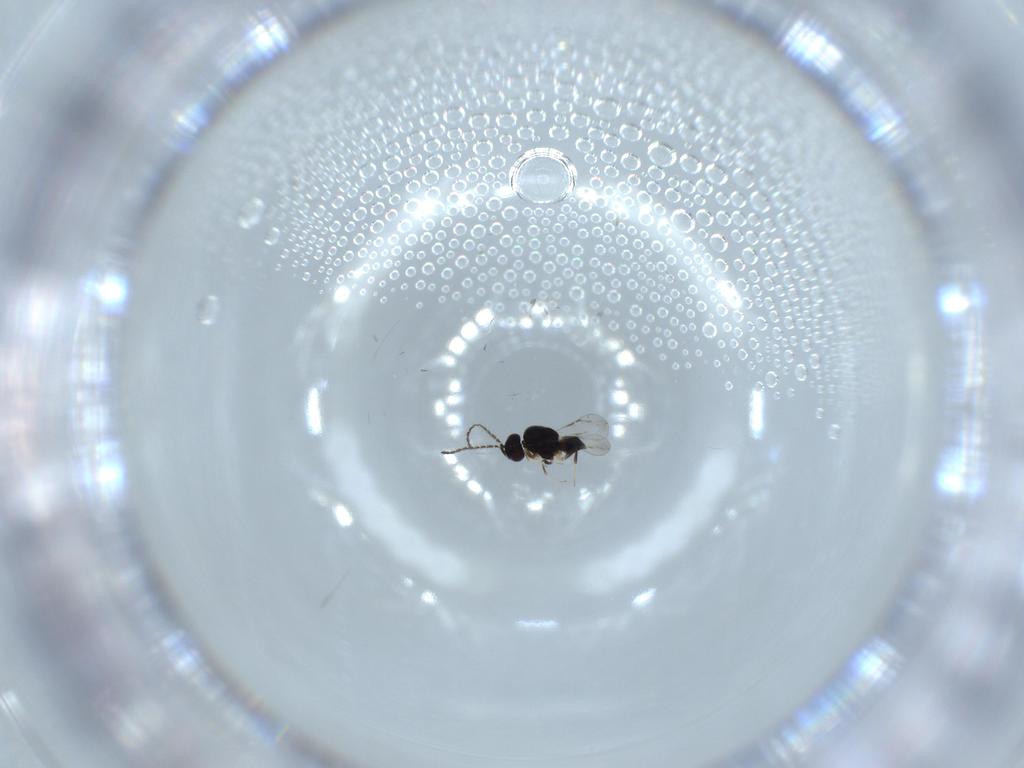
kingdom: Animalia
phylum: Arthropoda
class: Insecta
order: Hymenoptera
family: Ceraphronidae
